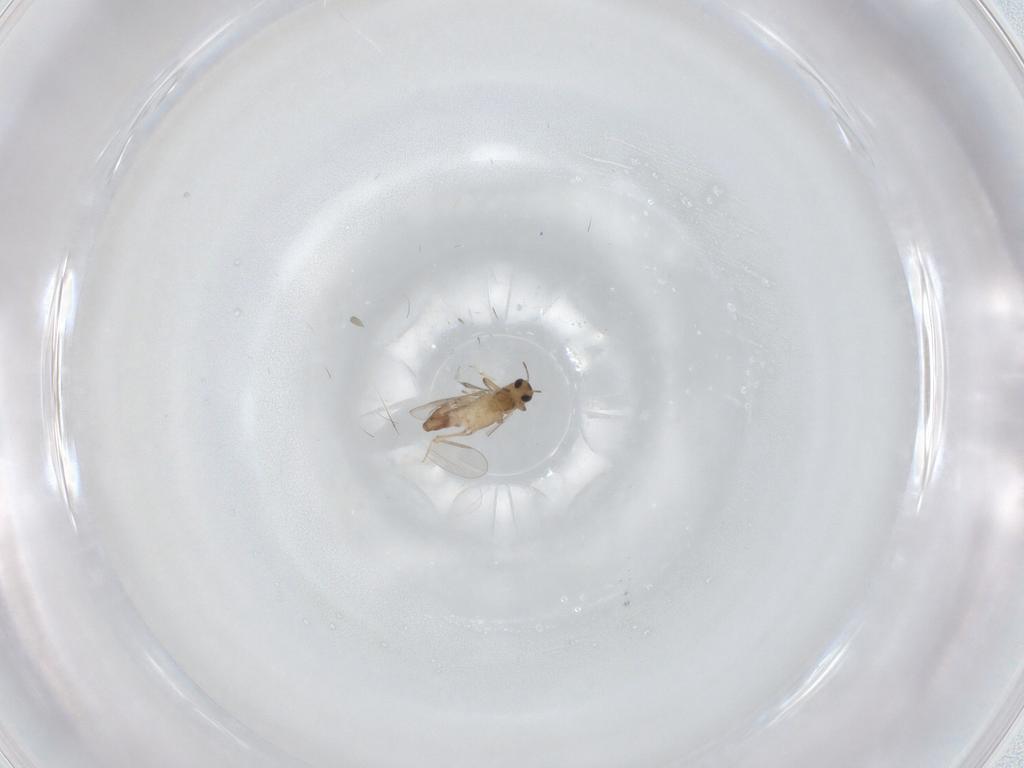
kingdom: Animalia
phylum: Arthropoda
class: Insecta
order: Diptera
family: Chironomidae
